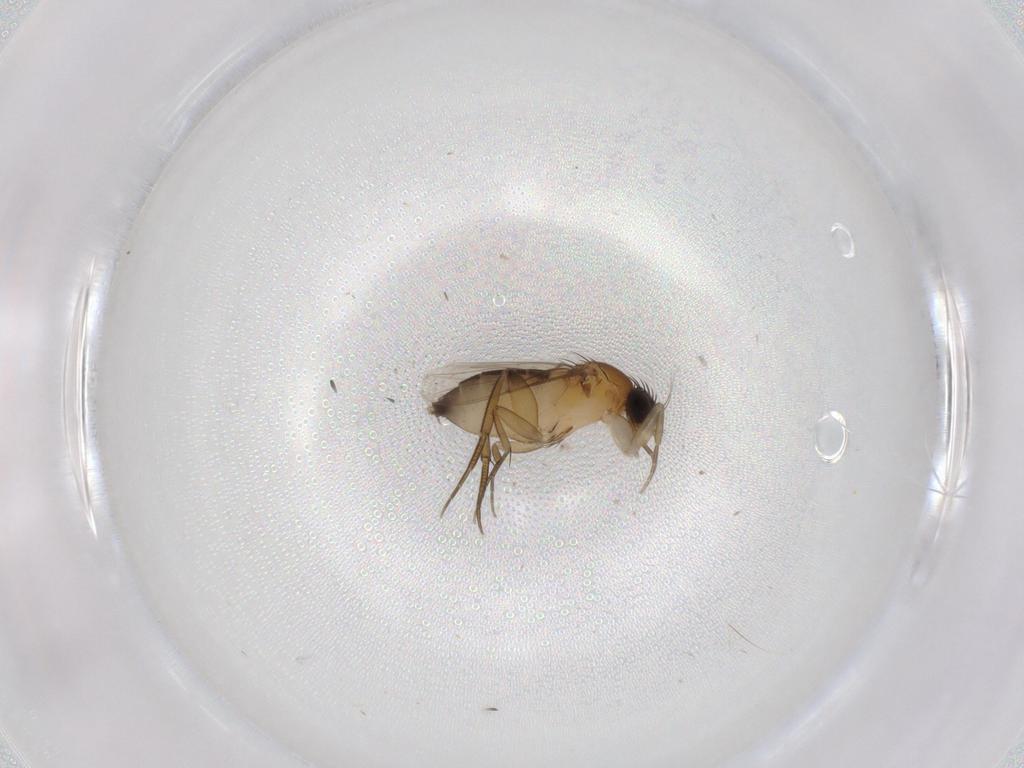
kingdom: Animalia
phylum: Arthropoda
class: Insecta
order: Diptera
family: Phoridae
